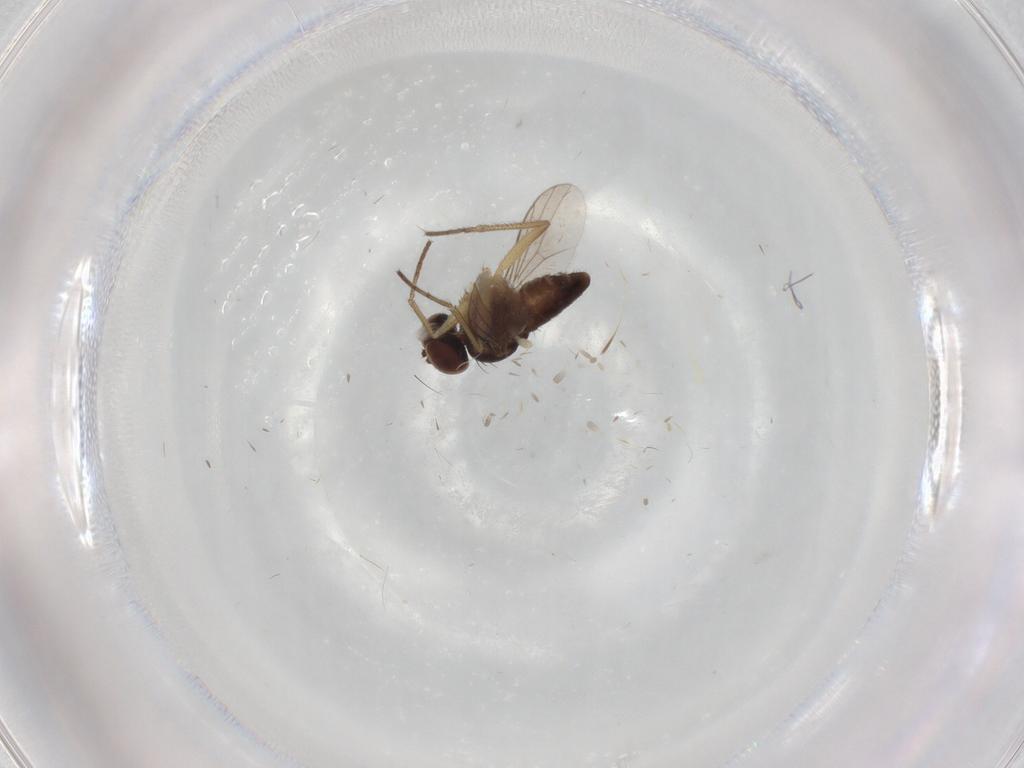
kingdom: Animalia
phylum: Arthropoda
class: Insecta
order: Diptera
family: Dolichopodidae
